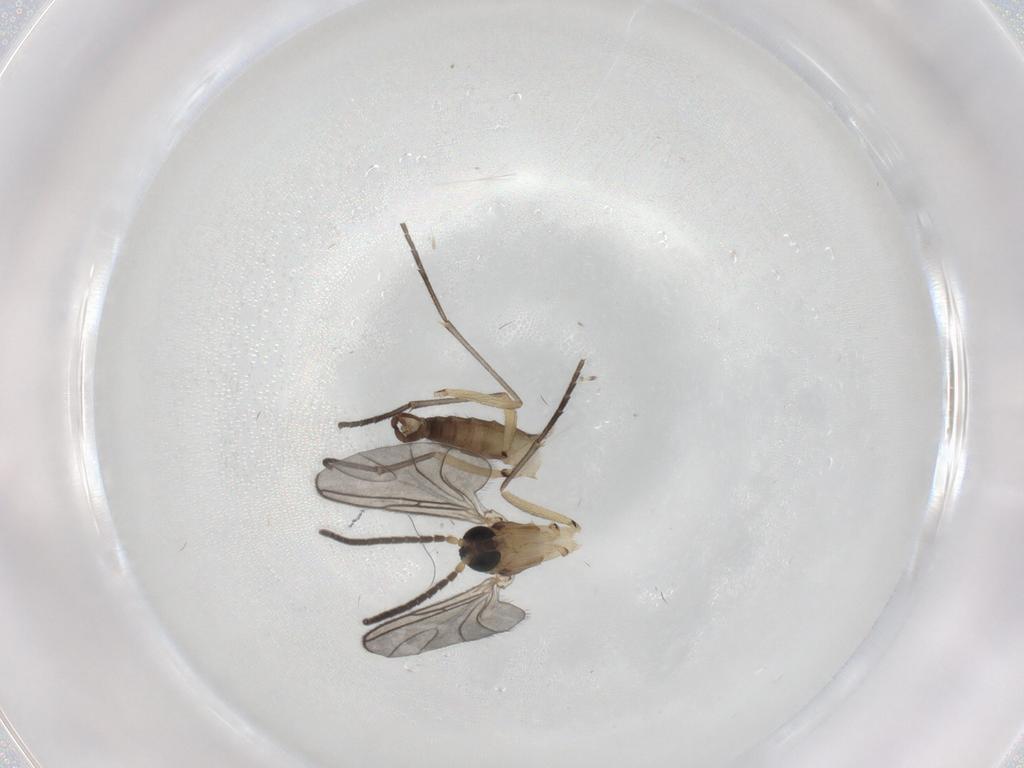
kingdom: Animalia
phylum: Arthropoda
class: Insecta
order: Diptera
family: Sciaridae
